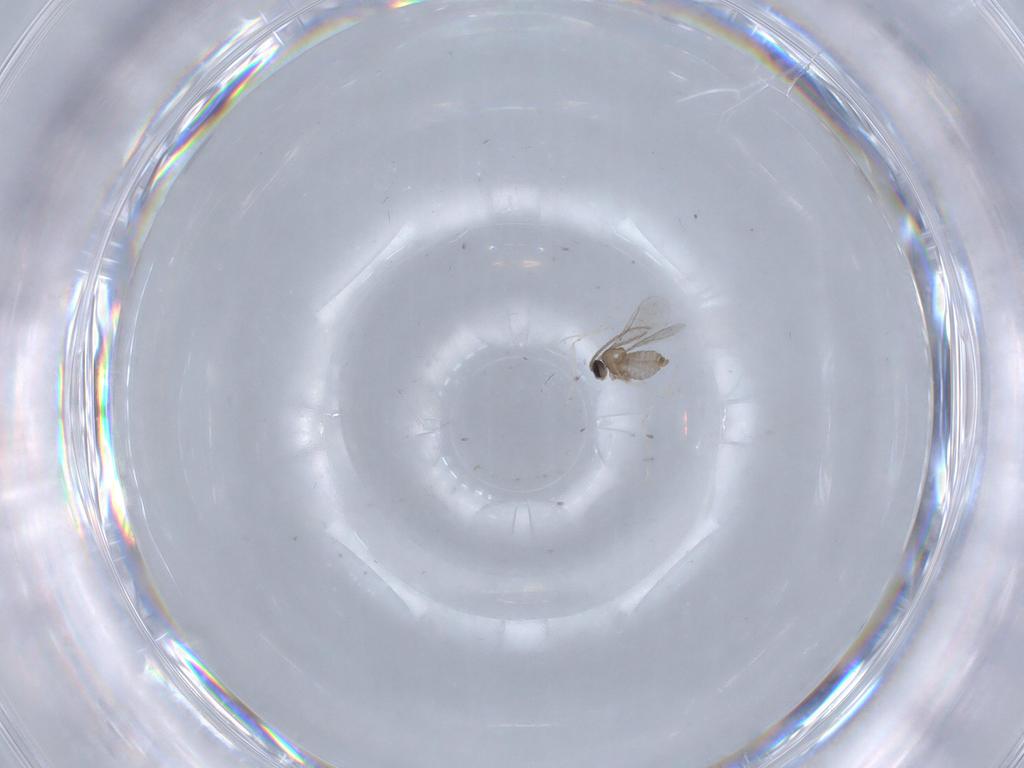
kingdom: Animalia
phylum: Arthropoda
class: Insecta
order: Diptera
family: Cecidomyiidae
